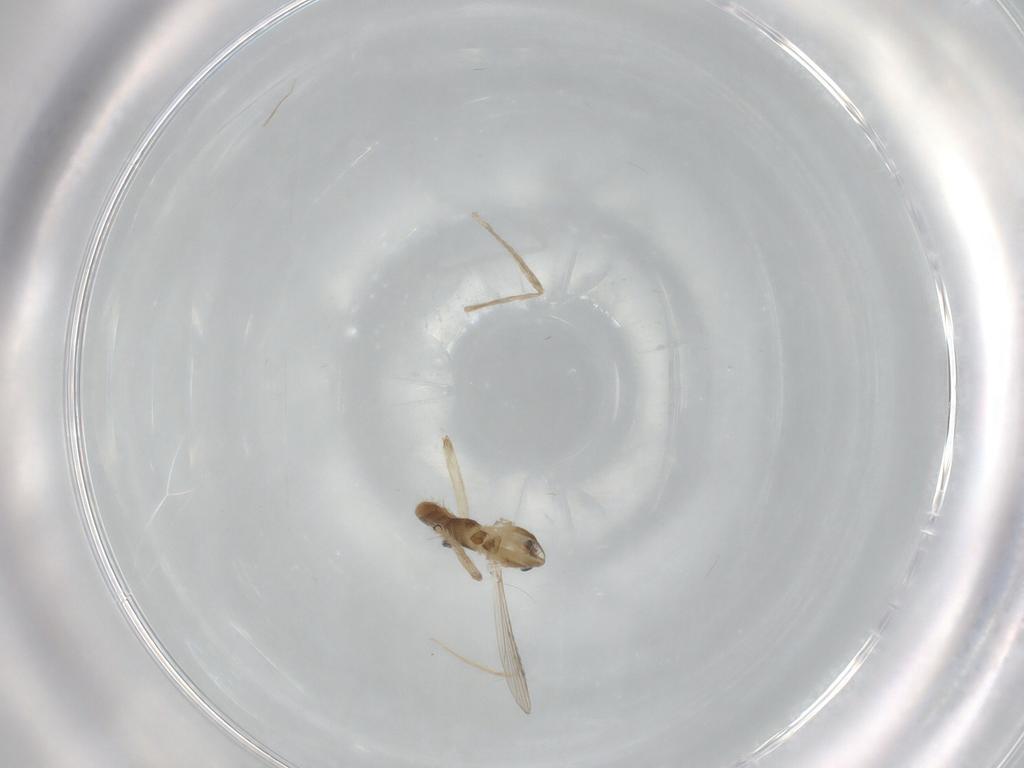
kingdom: Animalia
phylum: Arthropoda
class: Insecta
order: Diptera
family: Chironomidae
